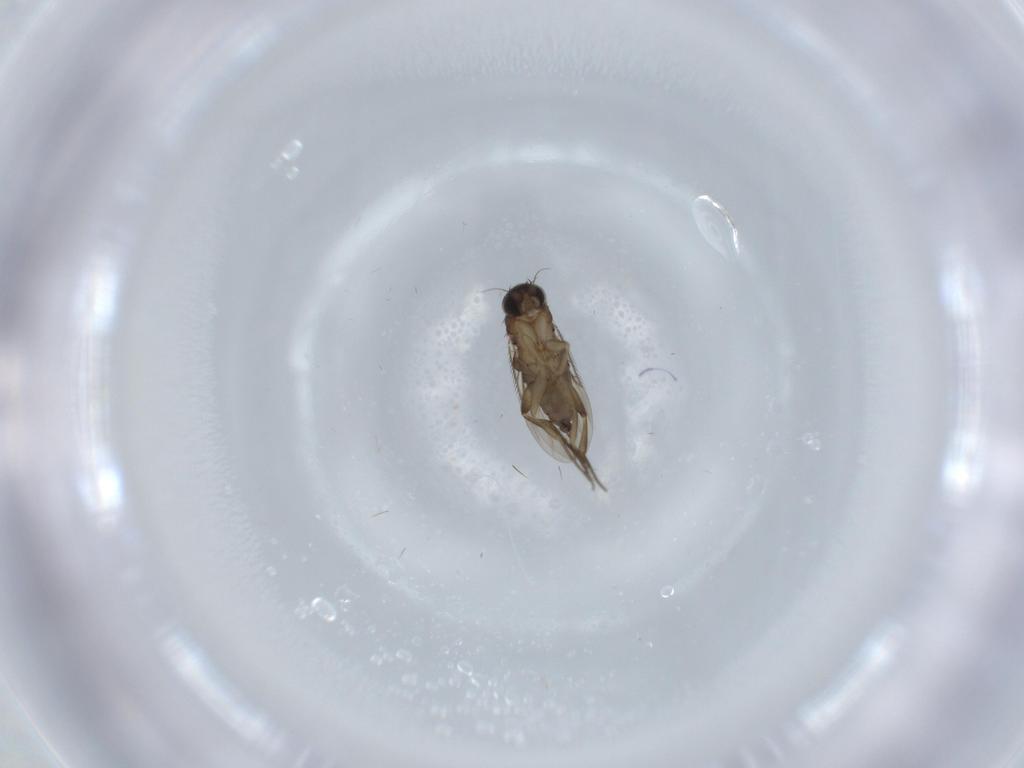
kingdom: Animalia
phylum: Arthropoda
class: Insecta
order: Diptera
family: Phoridae
